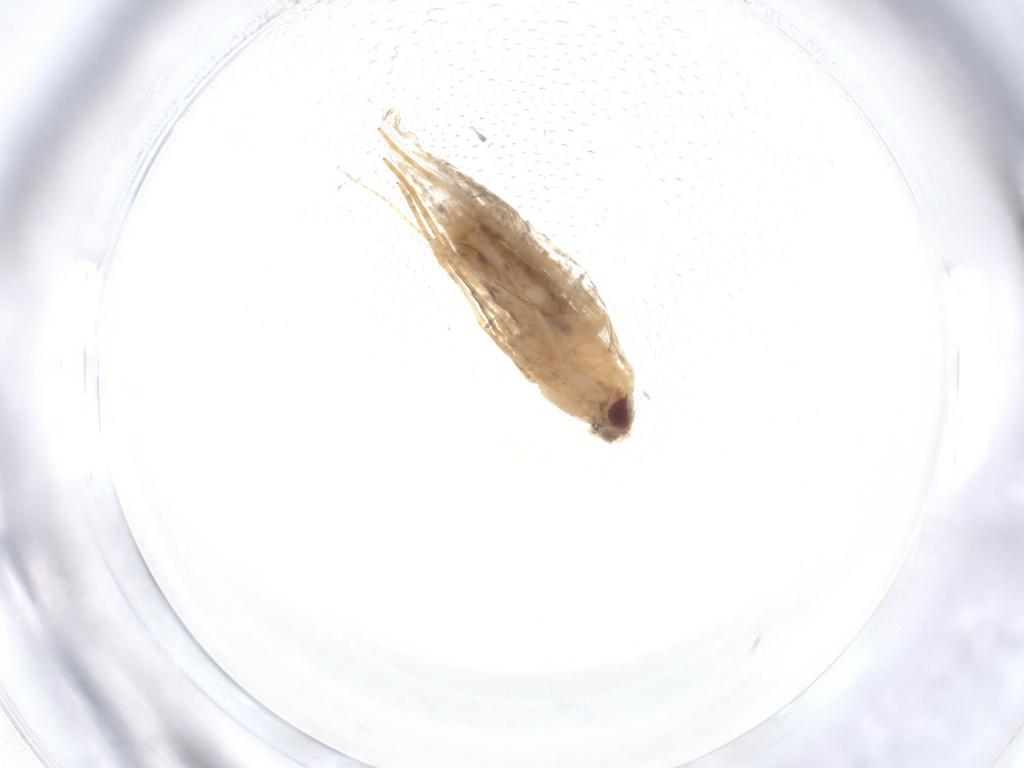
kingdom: Animalia
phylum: Arthropoda
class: Insecta
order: Lepidoptera
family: Cosmopterigidae
